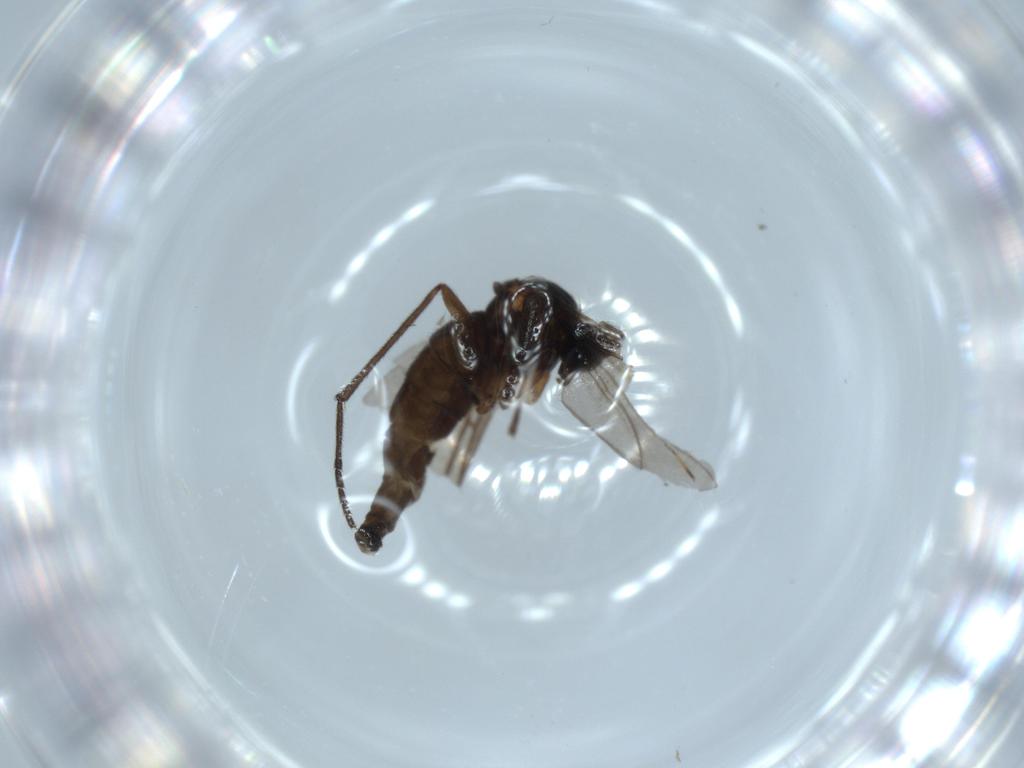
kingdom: Animalia
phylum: Arthropoda
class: Insecta
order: Diptera
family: Sciaridae
